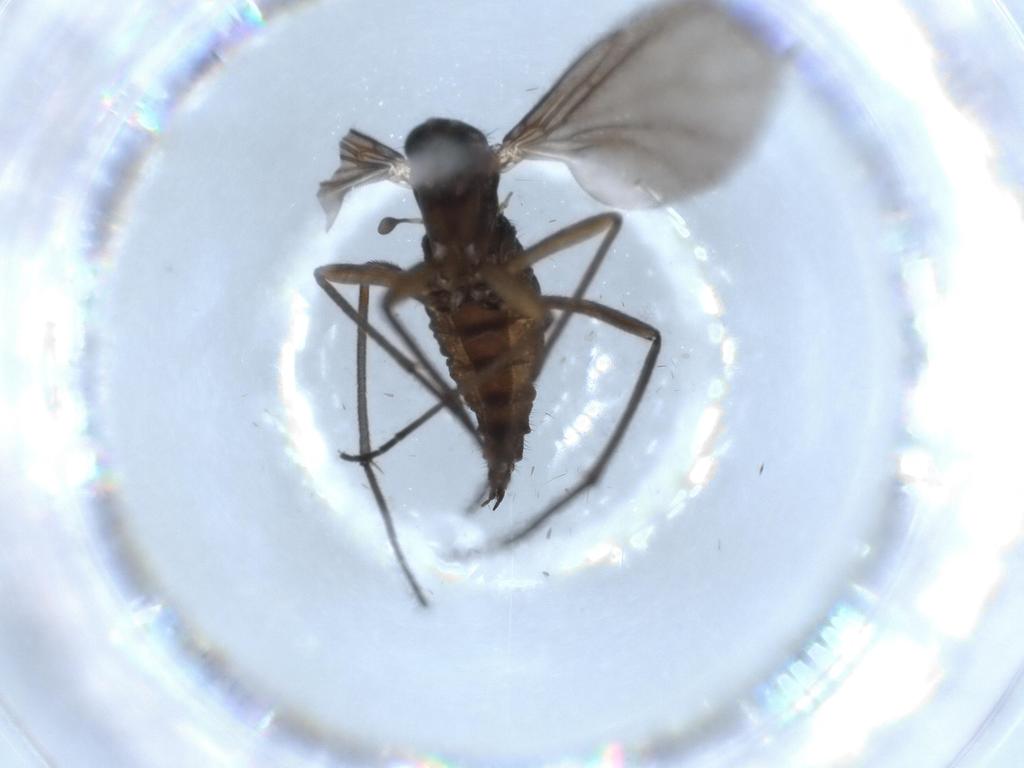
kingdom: Animalia
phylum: Arthropoda
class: Insecta
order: Diptera
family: Sciaridae
